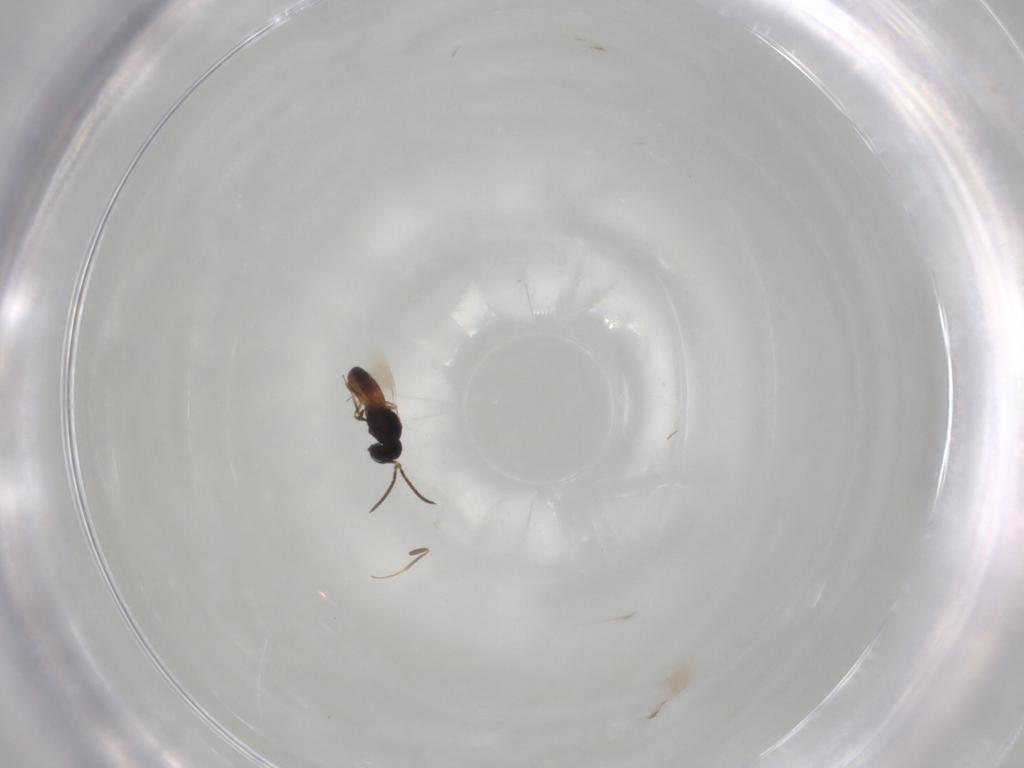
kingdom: Animalia
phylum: Arthropoda
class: Insecta
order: Hymenoptera
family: Scelionidae
